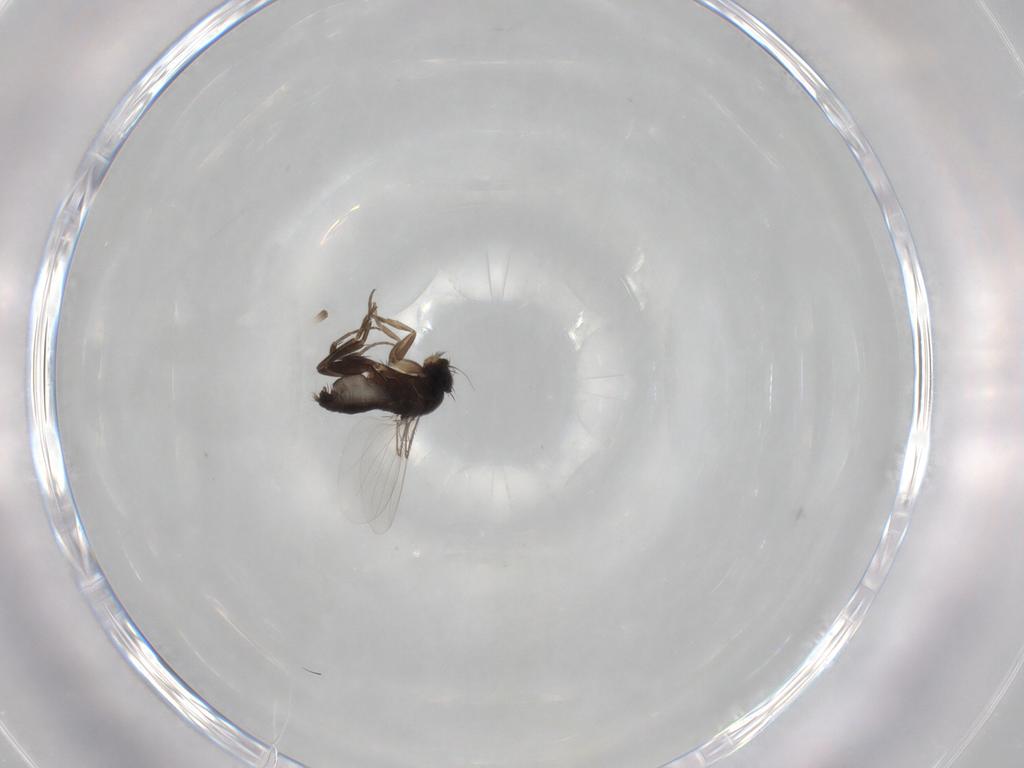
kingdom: Animalia
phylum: Arthropoda
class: Insecta
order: Diptera
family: Phoridae
